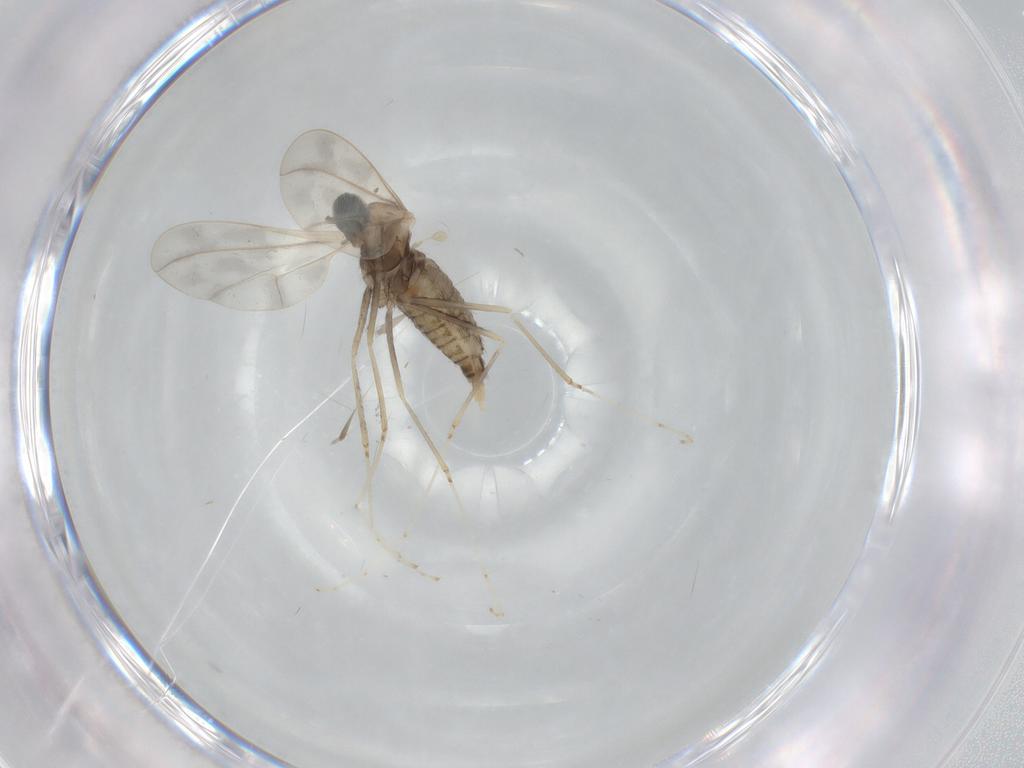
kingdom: Animalia
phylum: Arthropoda
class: Insecta
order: Diptera
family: Cecidomyiidae
